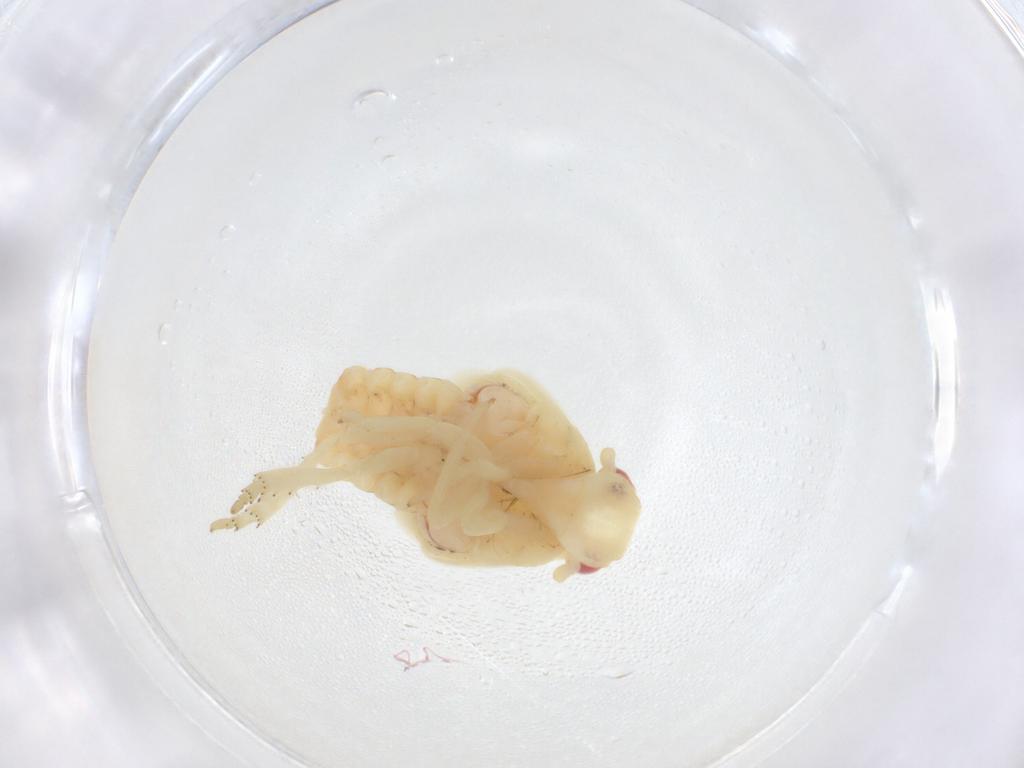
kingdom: Animalia
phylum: Arthropoda
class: Insecta
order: Hemiptera
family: Flatidae
